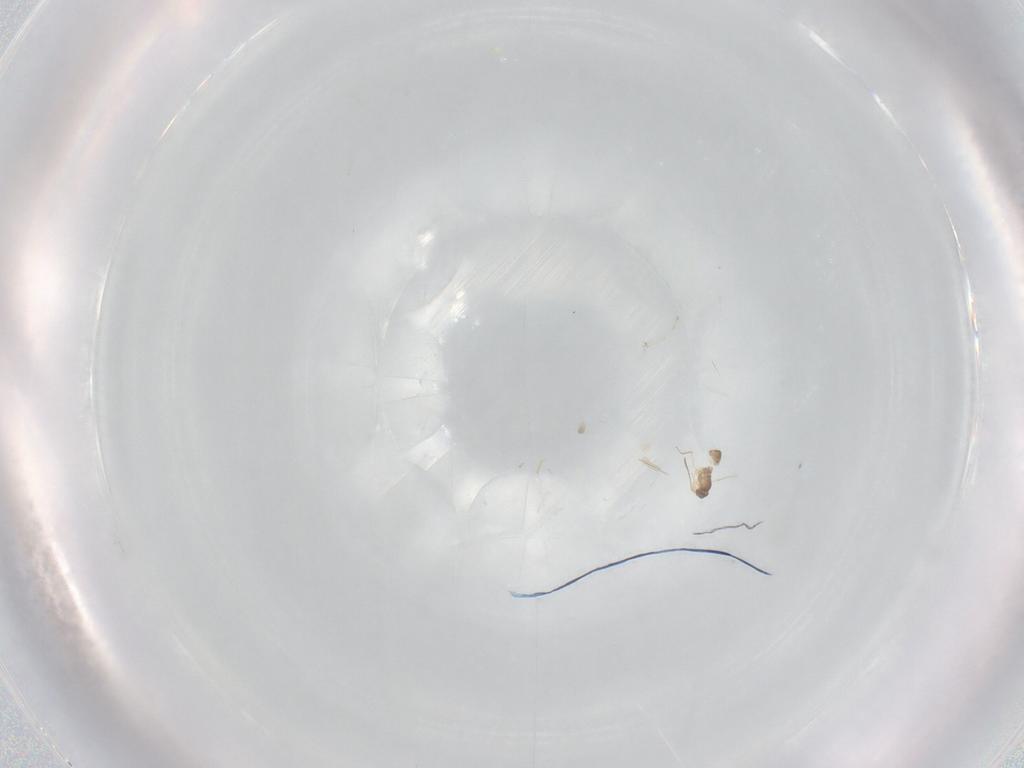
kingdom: Animalia
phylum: Arthropoda
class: Insecta
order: Hymenoptera
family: Mymaridae
